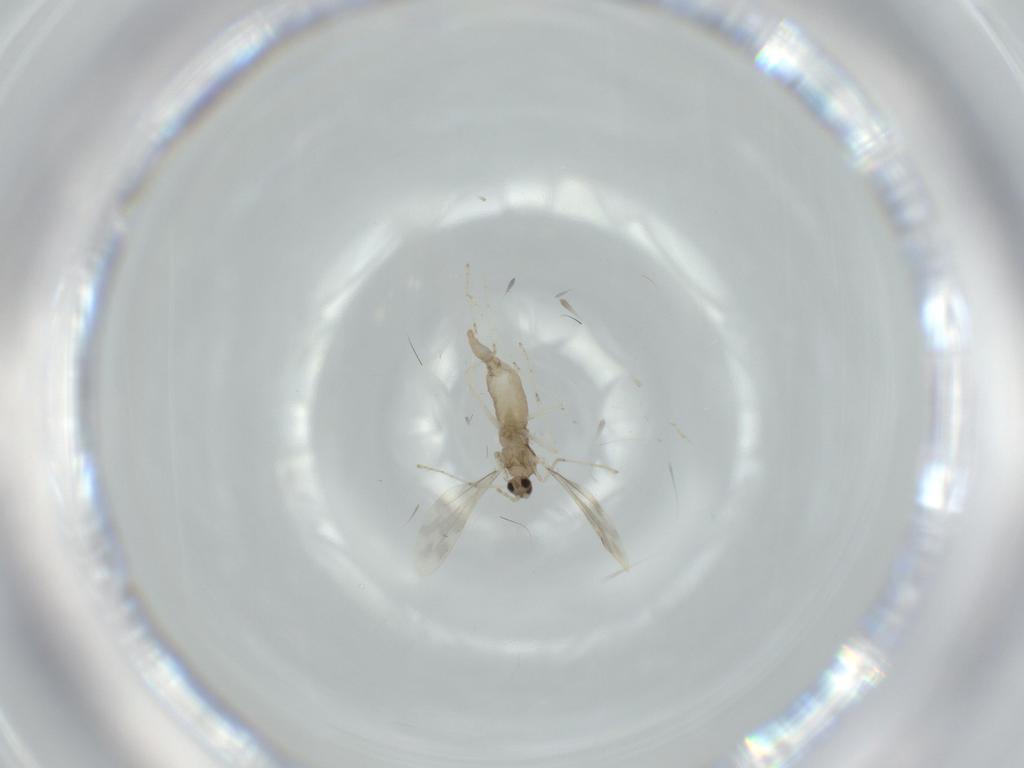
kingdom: Animalia
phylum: Arthropoda
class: Insecta
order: Diptera
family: Cecidomyiidae
